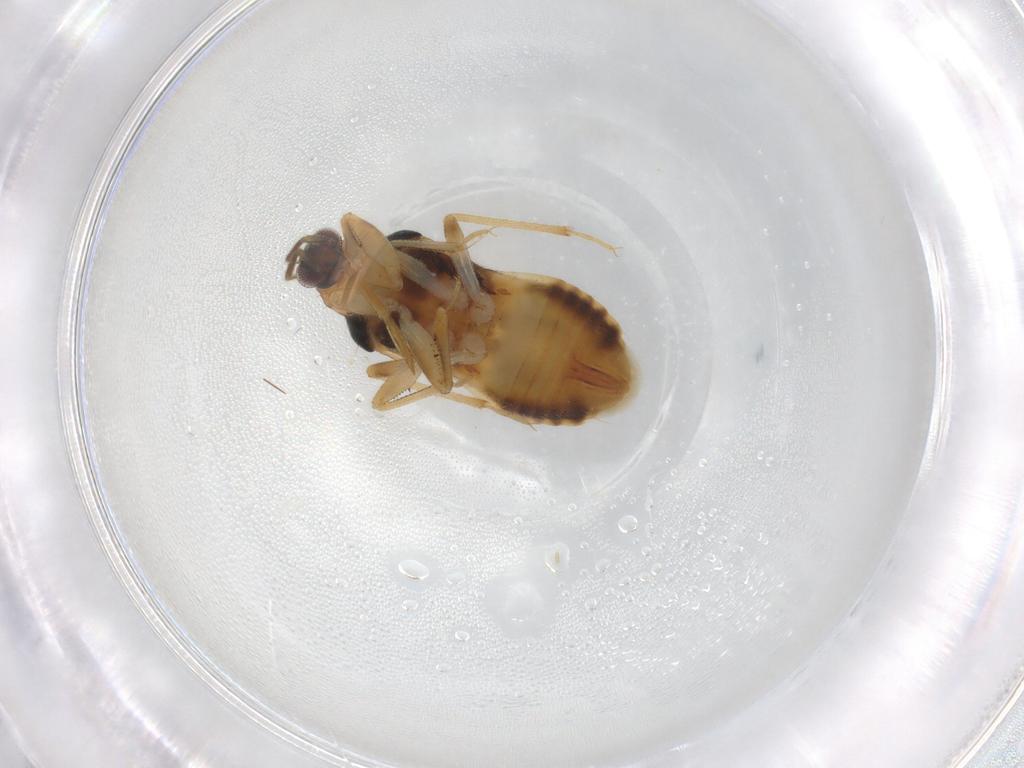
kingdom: Animalia
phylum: Arthropoda
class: Insecta
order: Hemiptera
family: Nabidae
